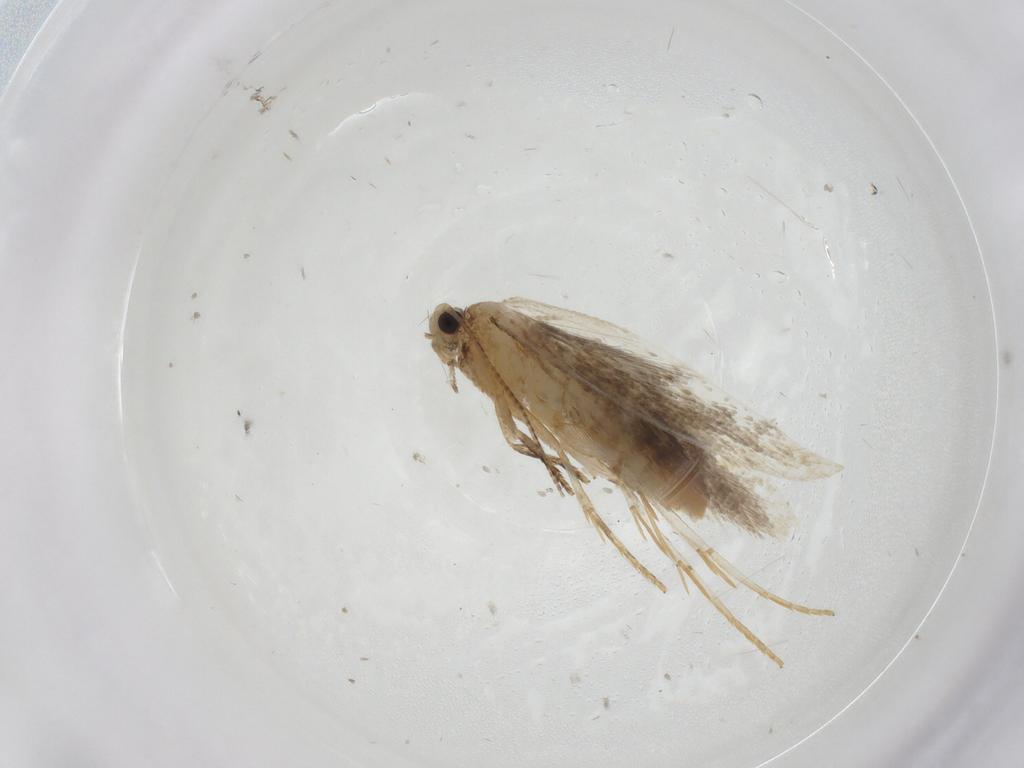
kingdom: Animalia
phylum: Arthropoda
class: Insecta
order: Lepidoptera
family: Tineidae
